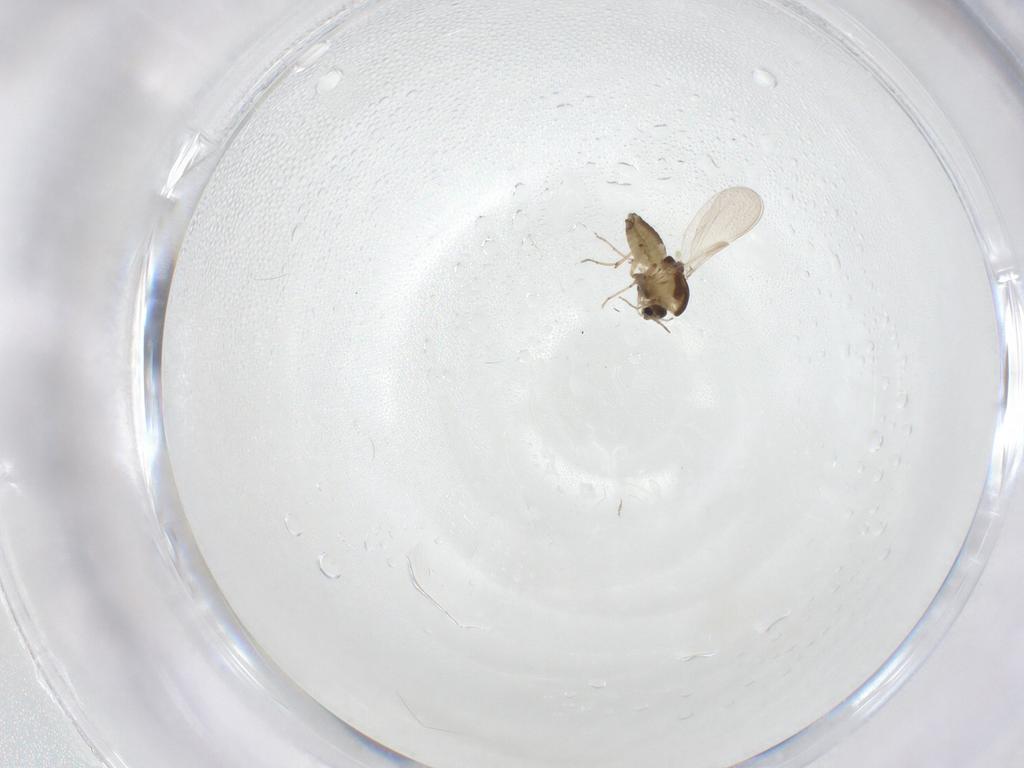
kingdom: Animalia
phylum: Arthropoda
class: Insecta
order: Diptera
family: Chironomidae
